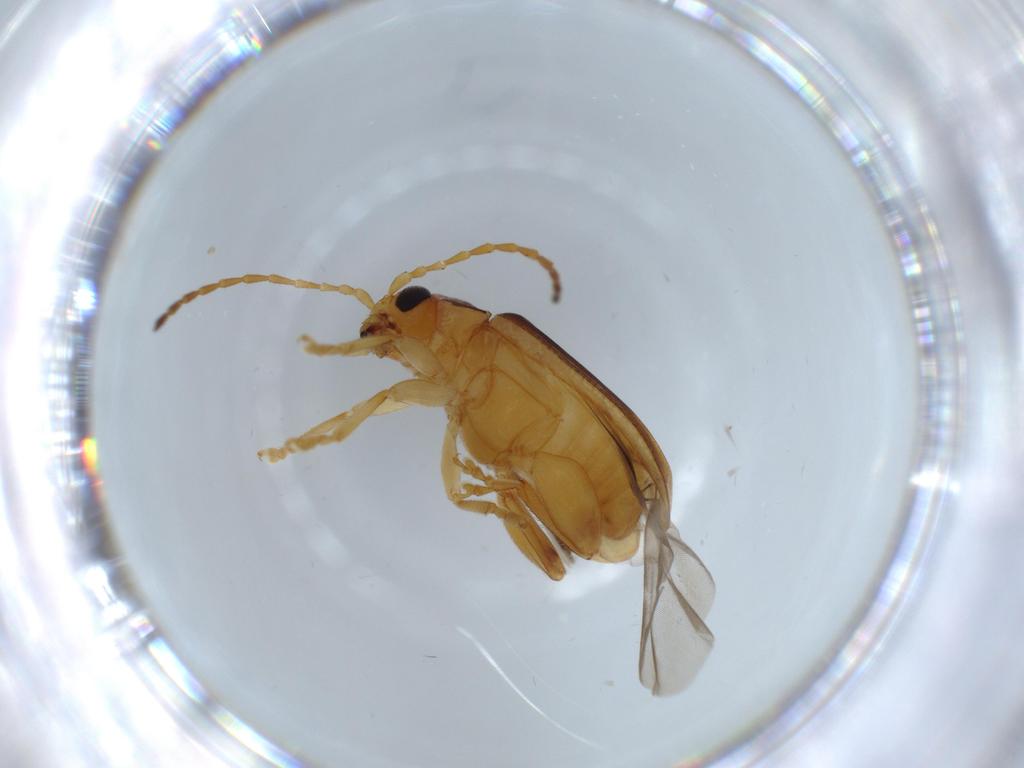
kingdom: Animalia
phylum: Arthropoda
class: Insecta
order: Coleoptera
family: Chrysomelidae
